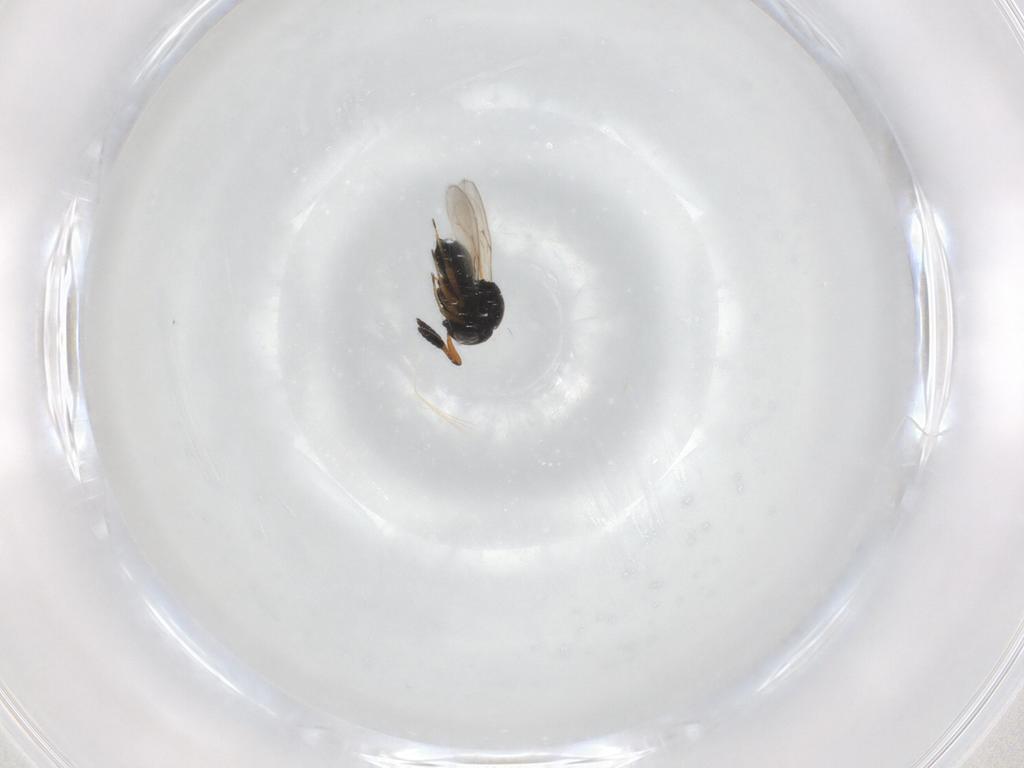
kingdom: Animalia
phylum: Arthropoda
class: Insecta
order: Hymenoptera
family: Scelionidae
